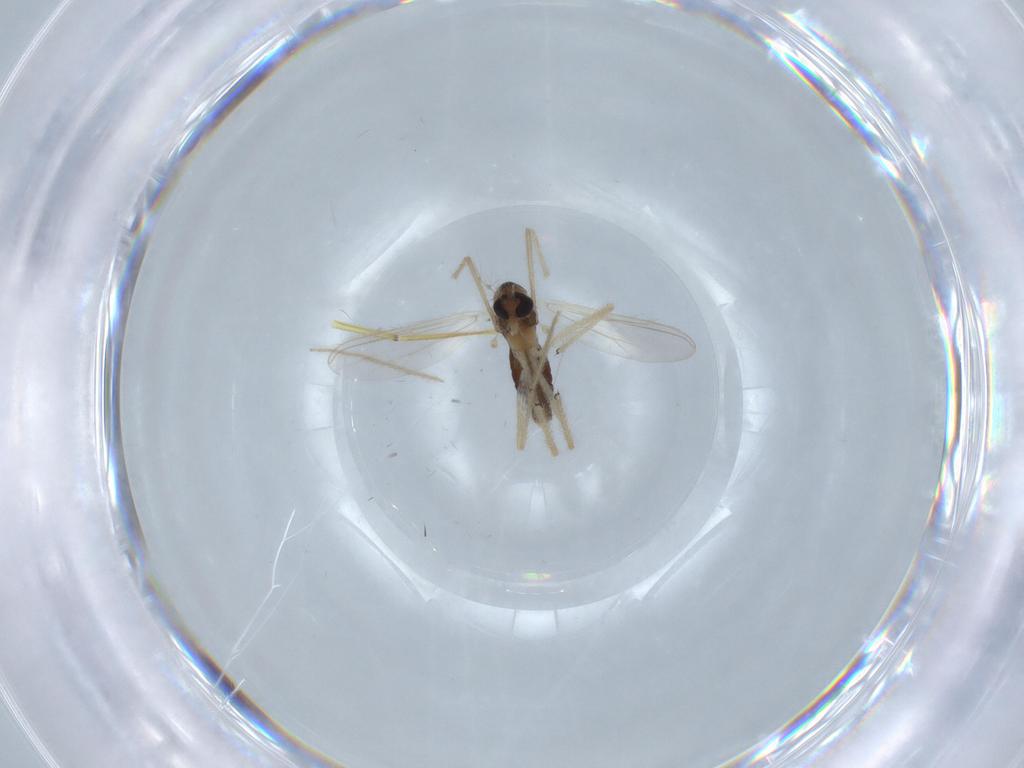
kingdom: Animalia
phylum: Arthropoda
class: Insecta
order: Diptera
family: Chironomidae
